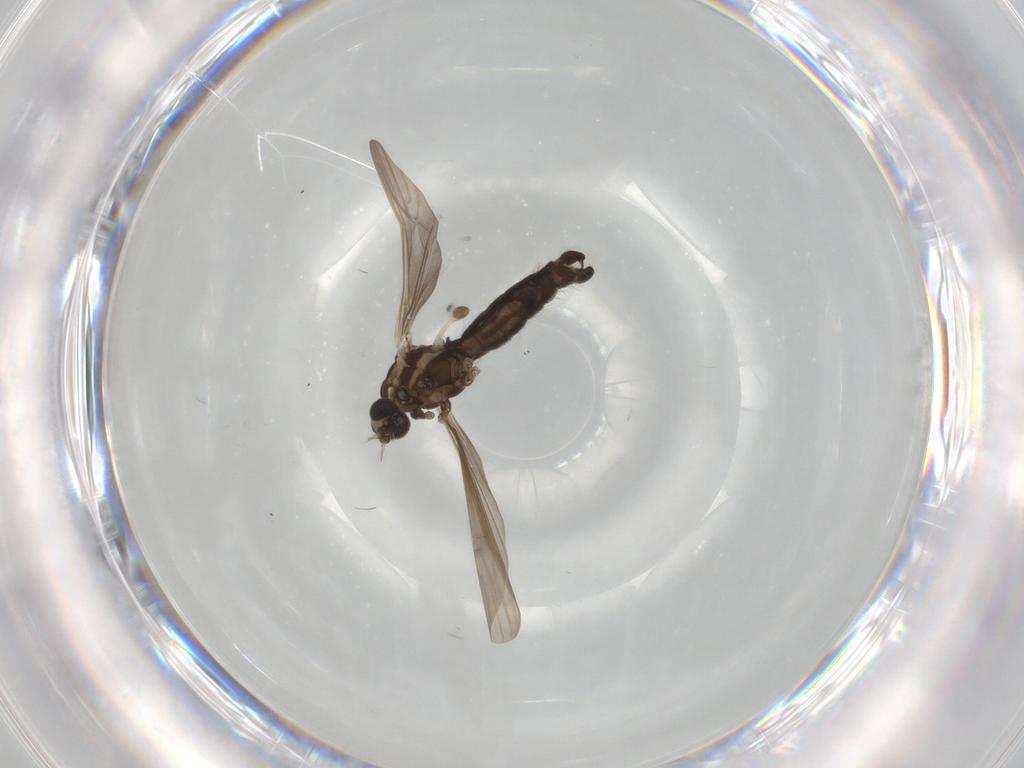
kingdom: Animalia
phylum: Arthropoda
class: Insecta
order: Diptera
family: Limoniidae
